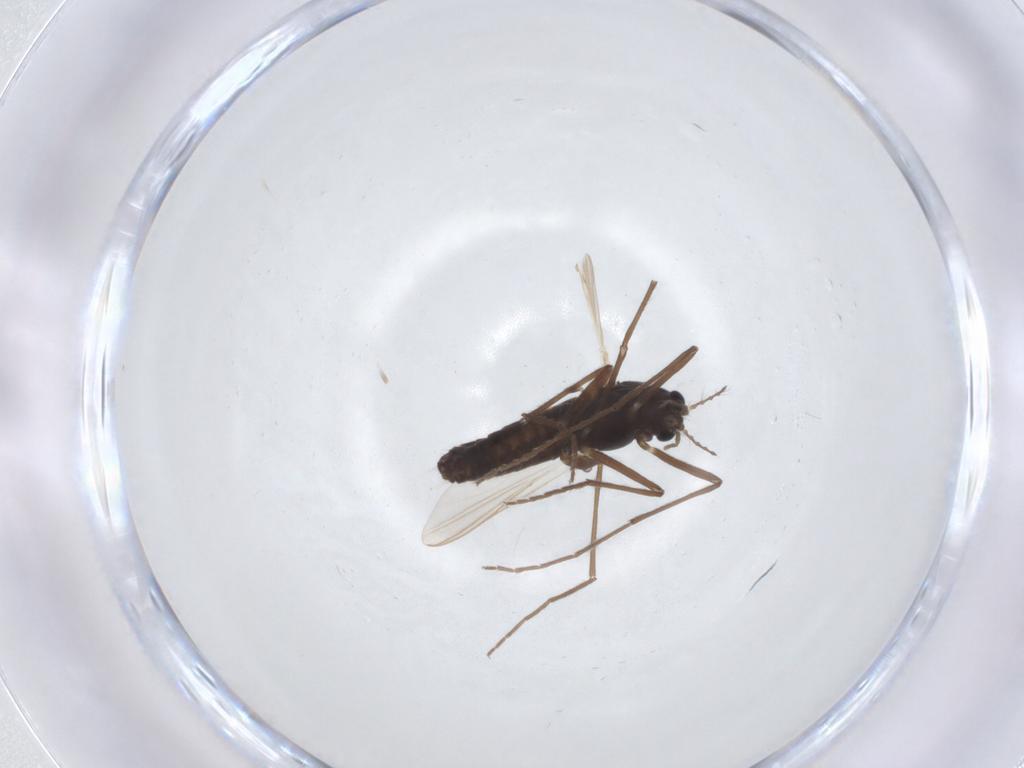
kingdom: Animalia
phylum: Arthropoda
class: Insecta
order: Diptera
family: Chironomidae
